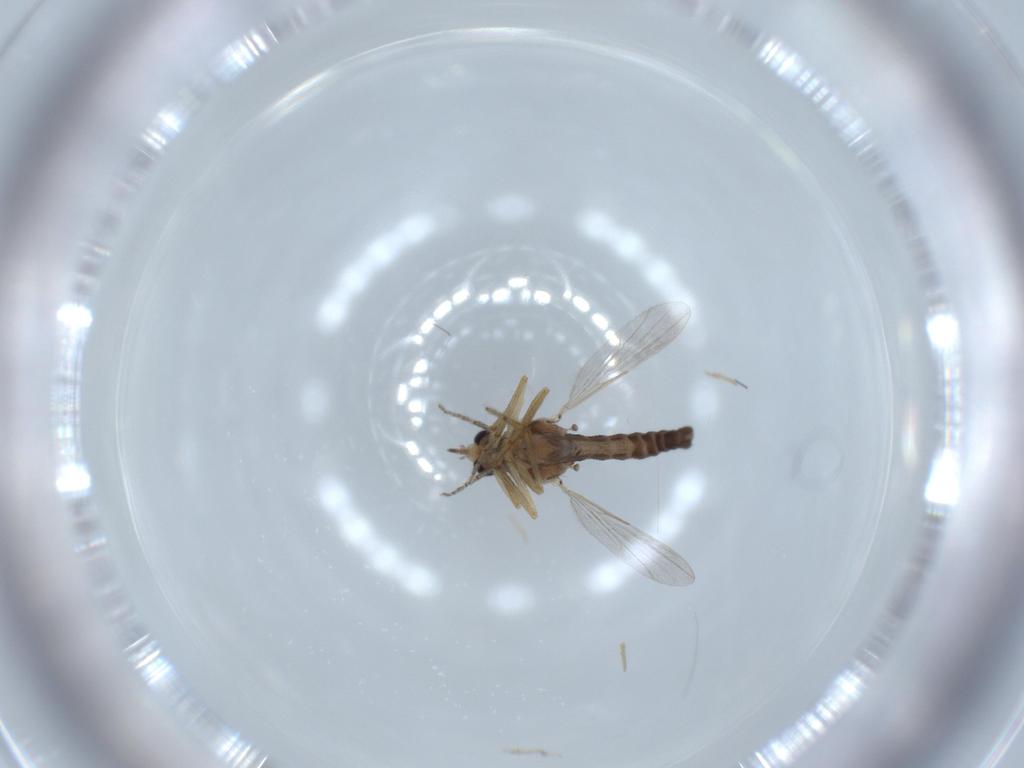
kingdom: Animalia
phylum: Arthropoda
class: Insecta
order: Diptera
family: Ceratopogonidae
